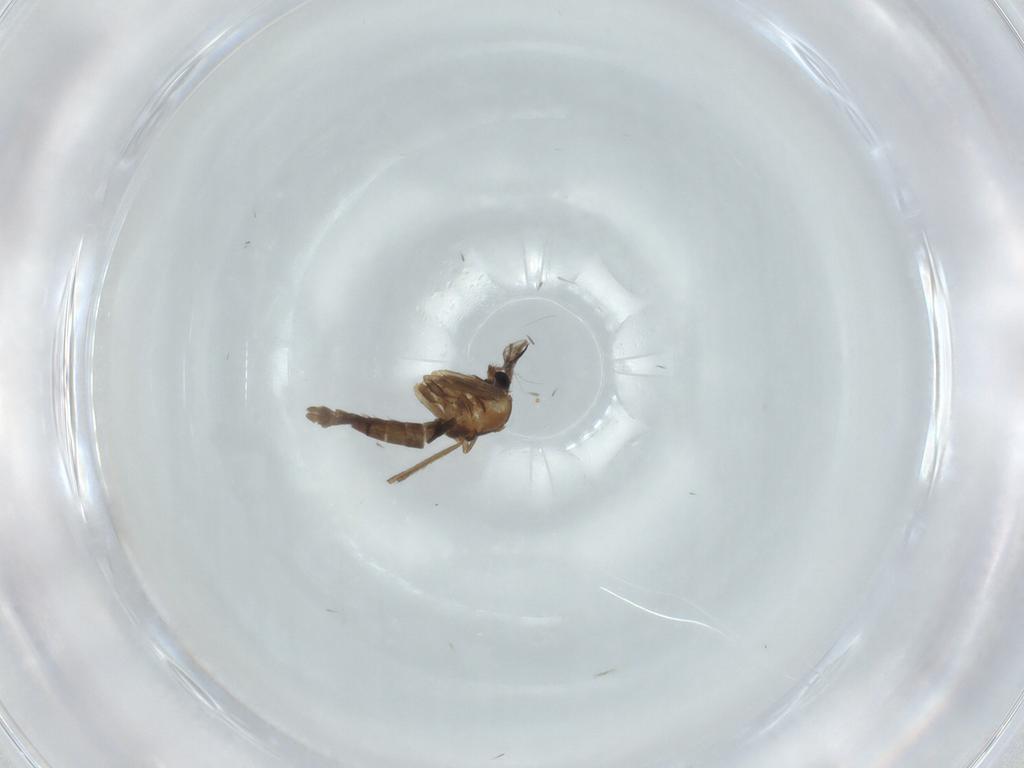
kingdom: Animalia
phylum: Arthropoda
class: Insecta
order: Diptera
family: Chironomidae
